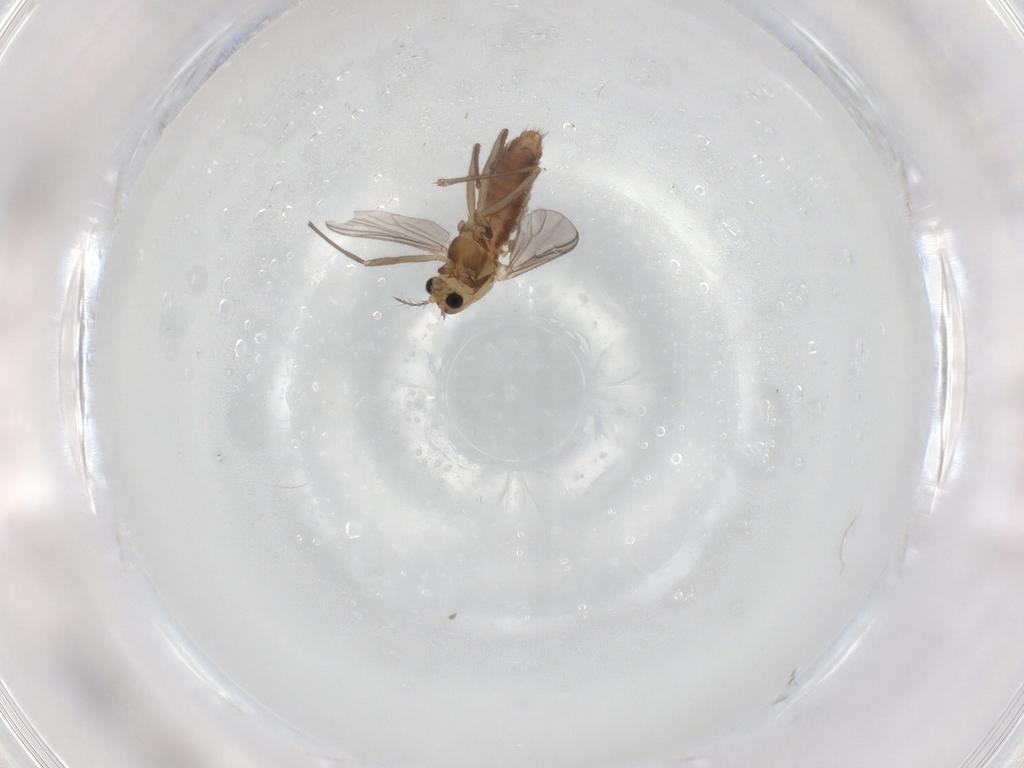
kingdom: Animalia
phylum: Arthropoda
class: Insecta
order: Diptera
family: Chironomidae
